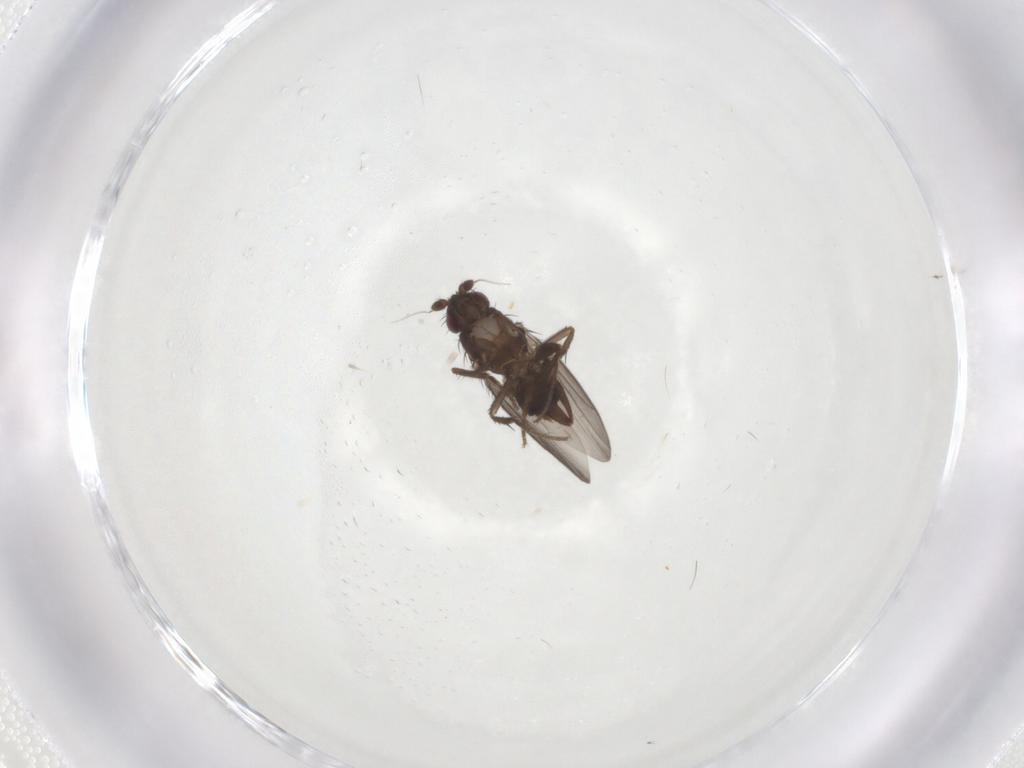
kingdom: Animalia
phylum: Arthropoda
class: Insecta
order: Diptera
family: Sphaeroceridae
